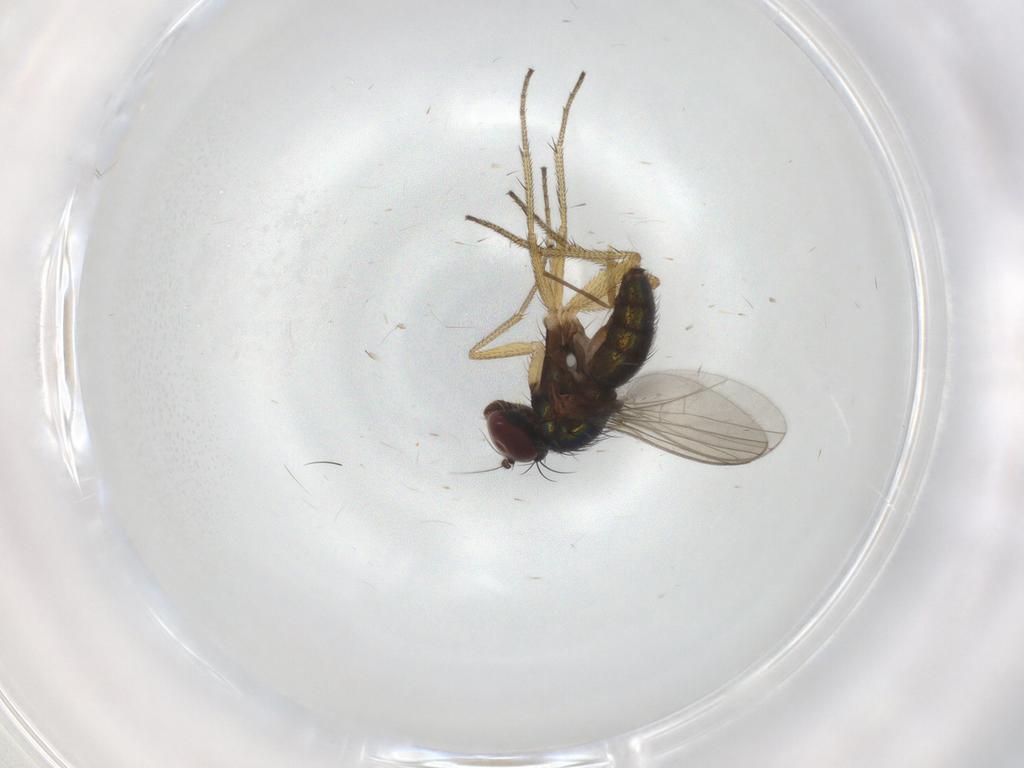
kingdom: Animalia
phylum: Arthropoda
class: Insecta
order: Diptera
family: Dolichopodidae
